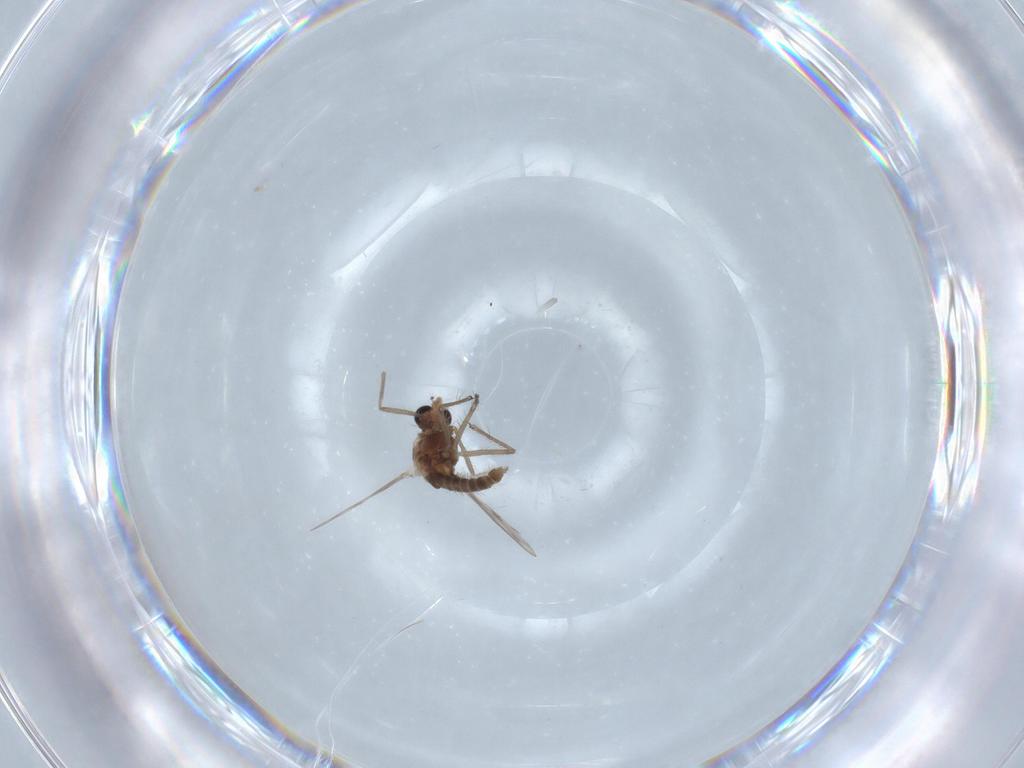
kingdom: Animalia
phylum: Arthropoda
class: Insecta
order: Diptera
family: Chironomidae
